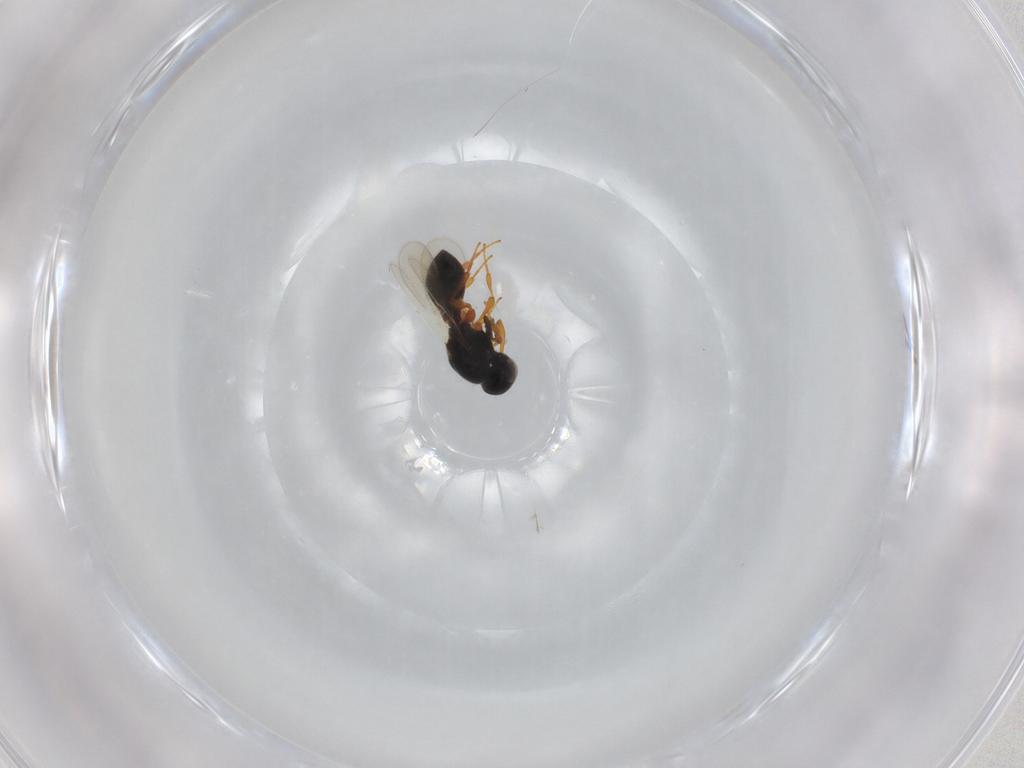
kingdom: Animalia
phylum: Arthropoda
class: Insecta
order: Hymenoptera
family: Platygastridae
